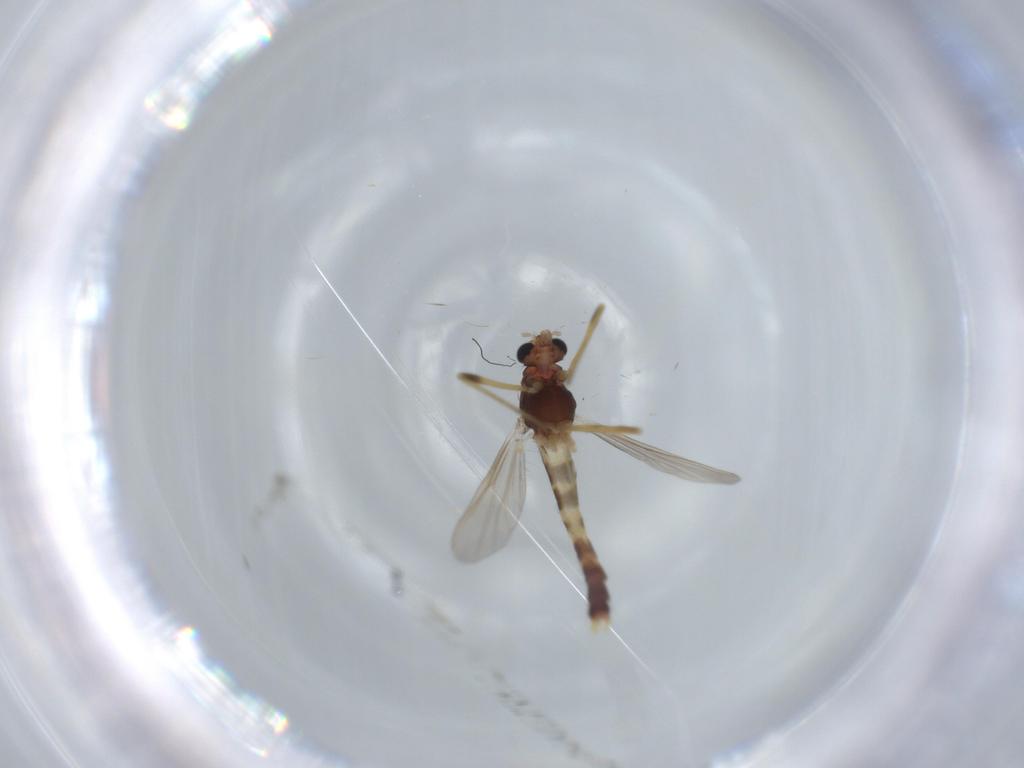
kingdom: Animalia
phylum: Arthropoda
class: Insecta
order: Diptera
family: Chironomidae
